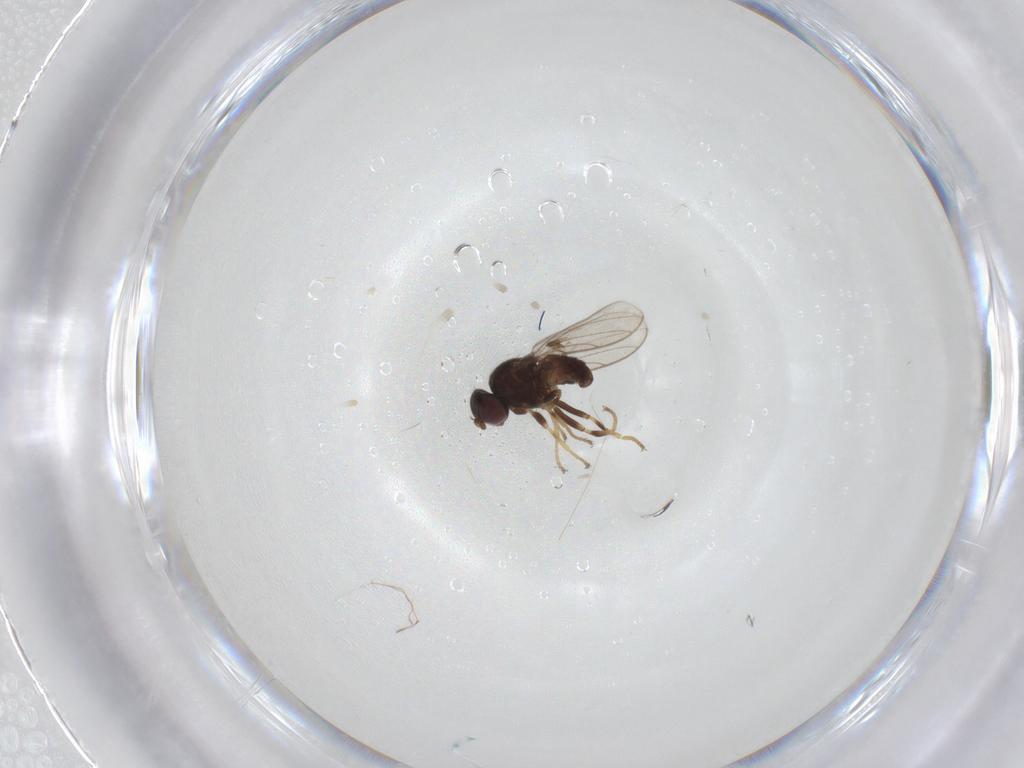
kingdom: Animalia
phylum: Arthropoda
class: Insecta
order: Diptera
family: Chloropidae
